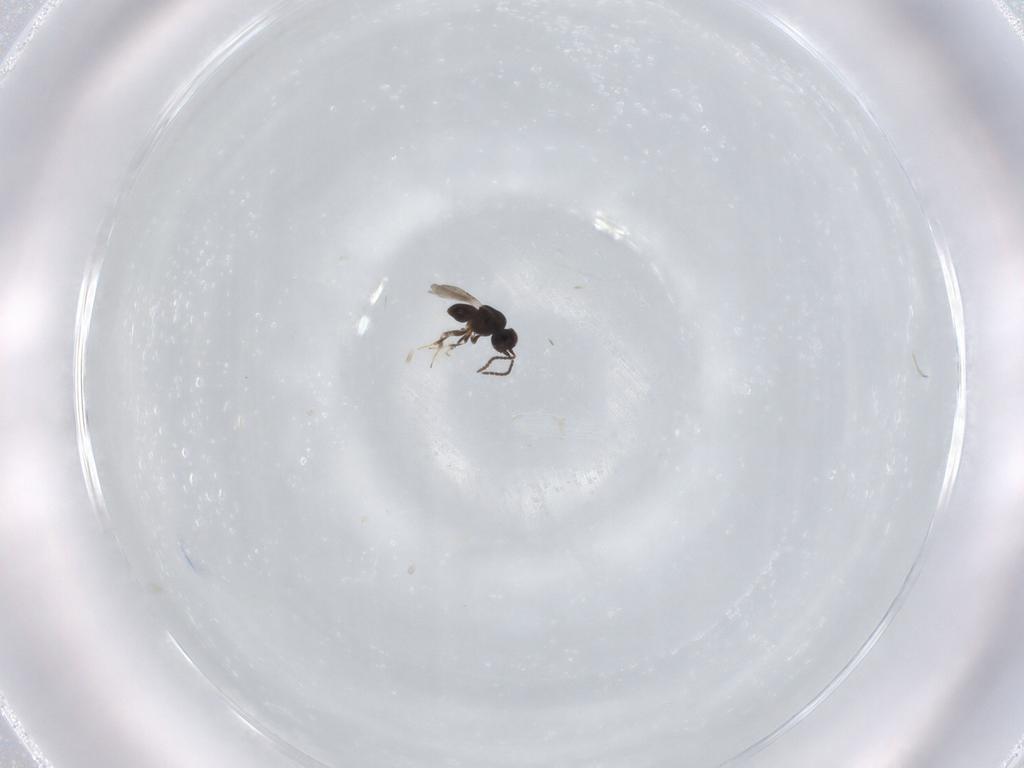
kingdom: Animalia
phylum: Arthropoda
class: Insecta
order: Hymenoptera
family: Ceraphronidae
